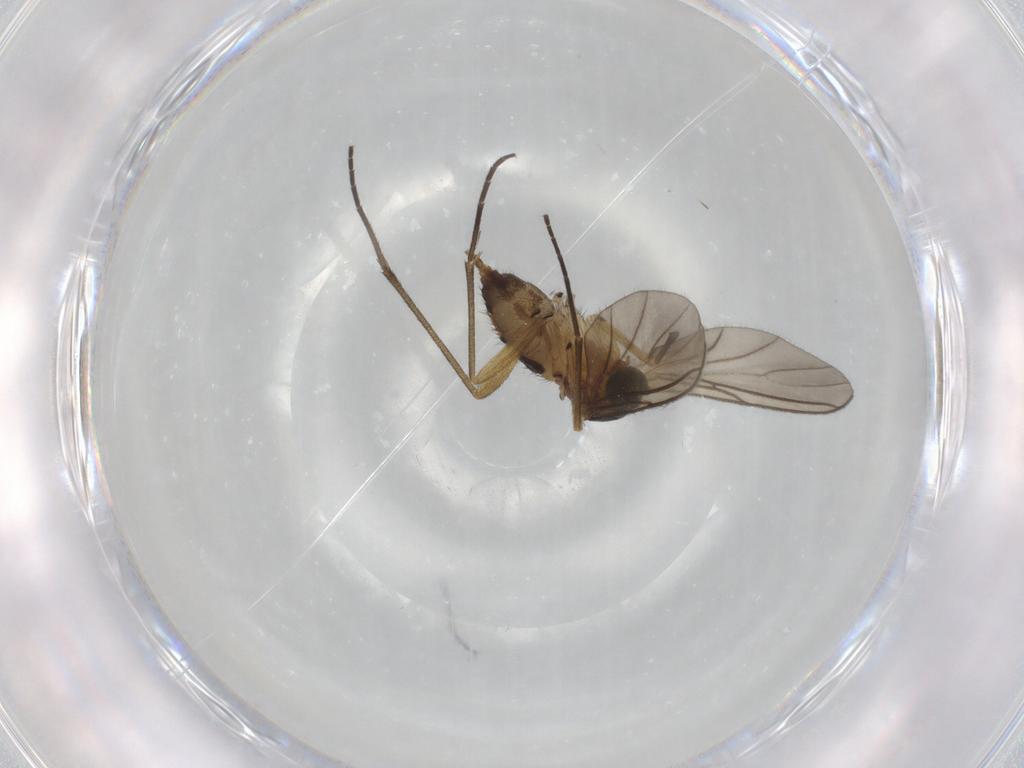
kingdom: Animalia
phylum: Arthropoda
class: Insecta
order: Diptera
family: Sciaridae
